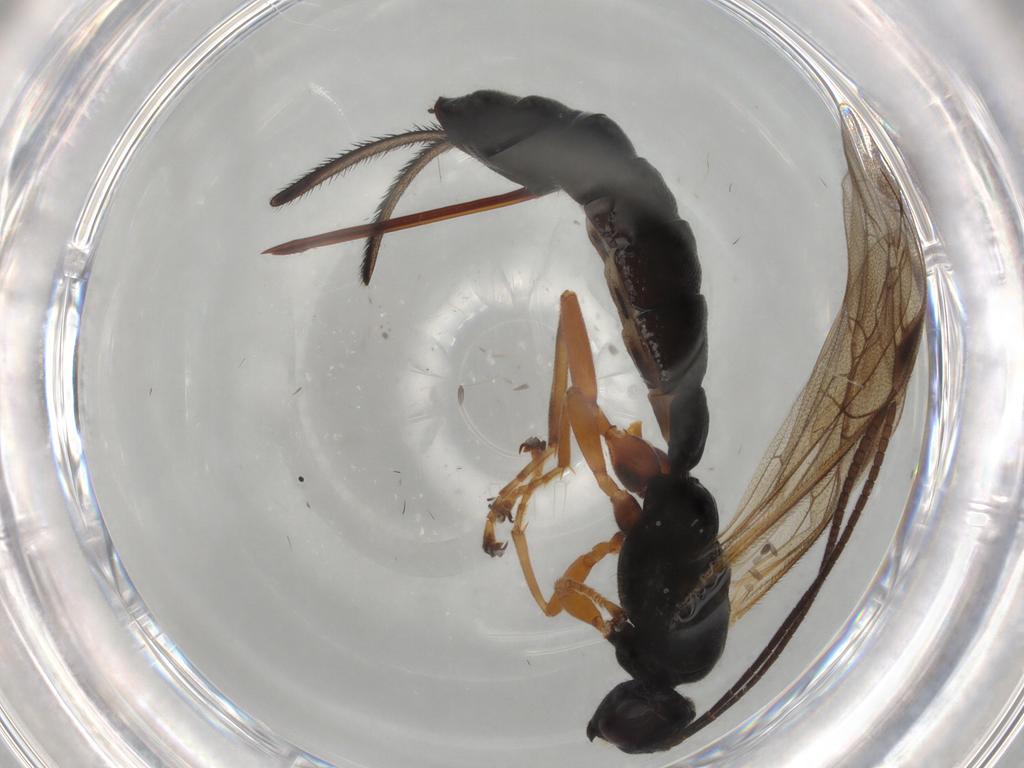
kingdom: Animalia
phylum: Arthropoda
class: Insecta
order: Hymenoptera
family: Ichneumonidae
